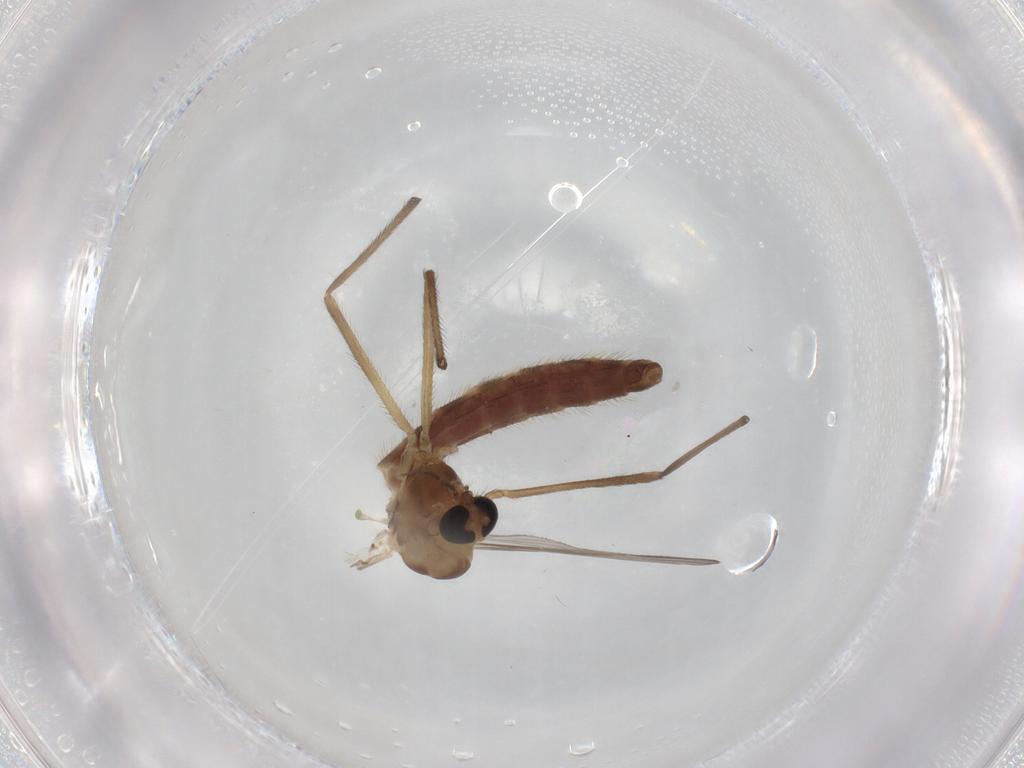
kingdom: Animalia
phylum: Arthropoda
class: Insecta
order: Diptera
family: Chironomidae
